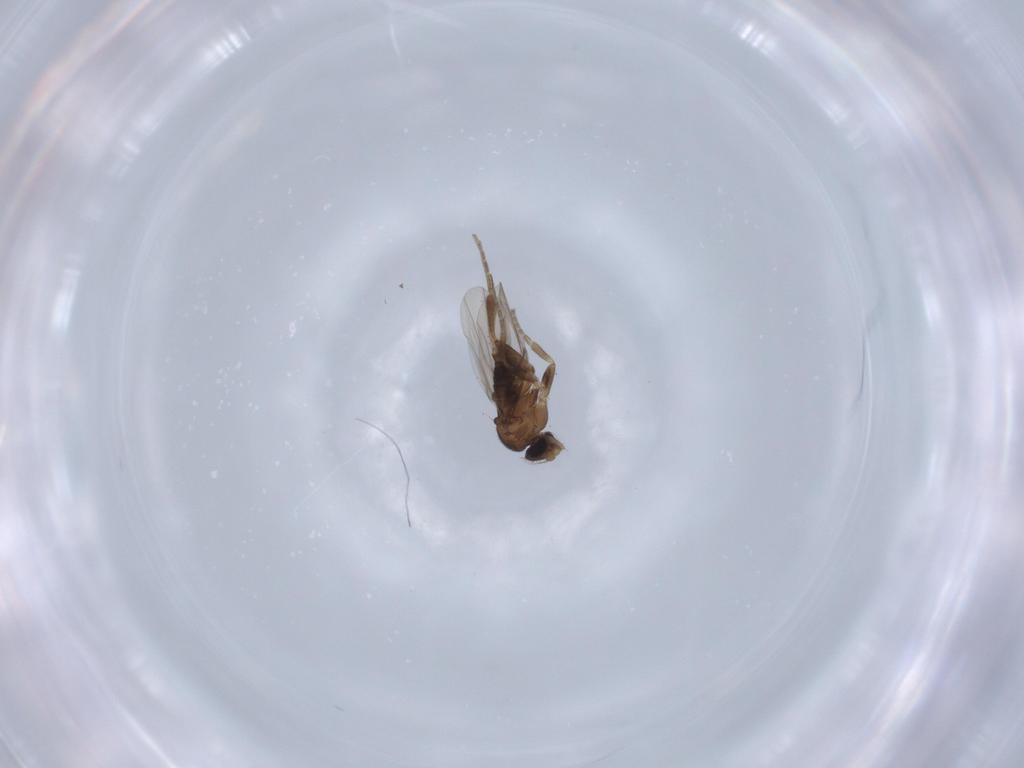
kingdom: Animalia
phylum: Arthropoda
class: Insecta
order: Diptera
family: Phoridae
